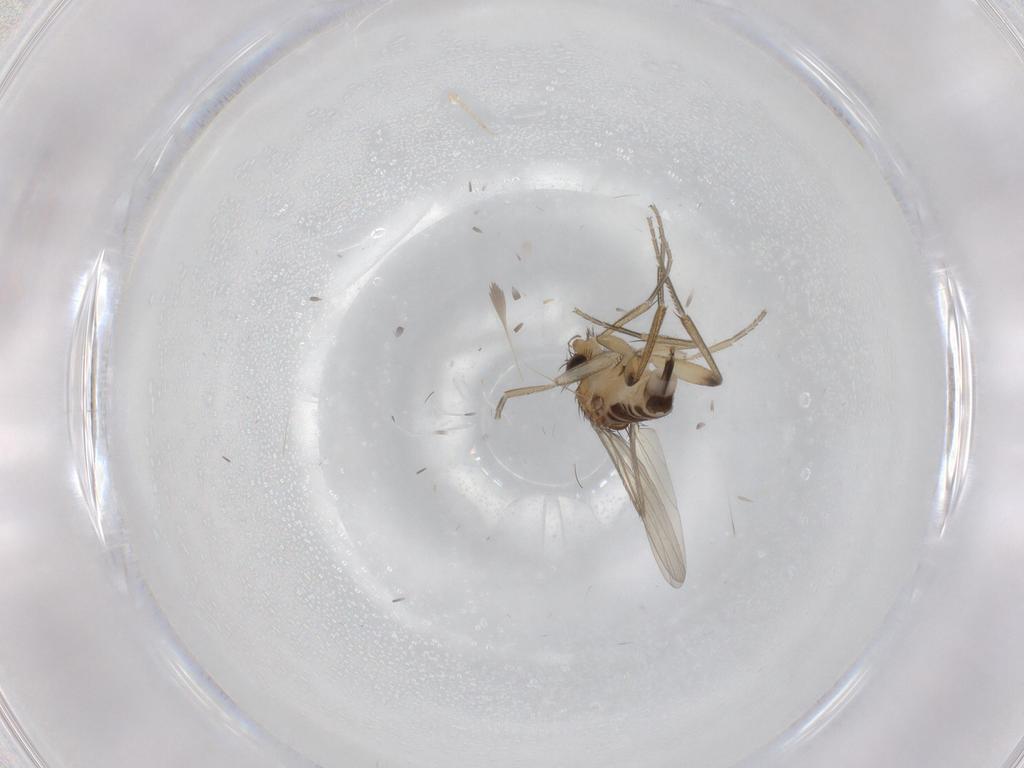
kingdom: Animalia
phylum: Arthropoda
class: Insecta
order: Diptera
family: Phoridae
